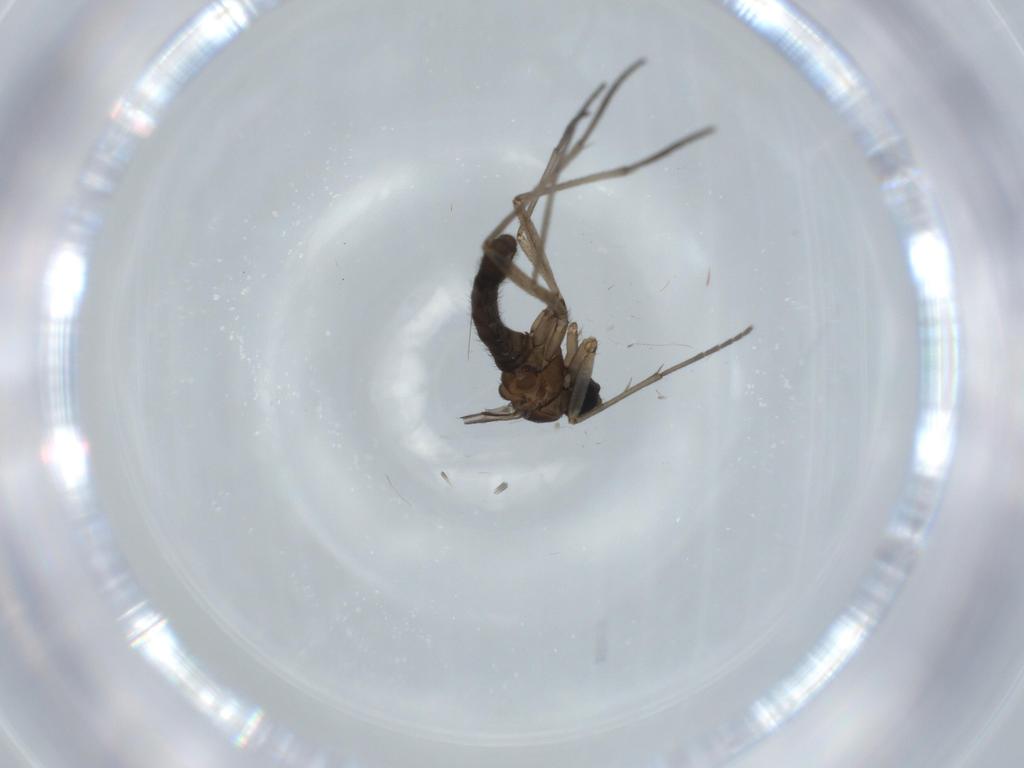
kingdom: Animalia
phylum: Arthropoda
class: Insecta
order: Diptera
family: Sciaridae
